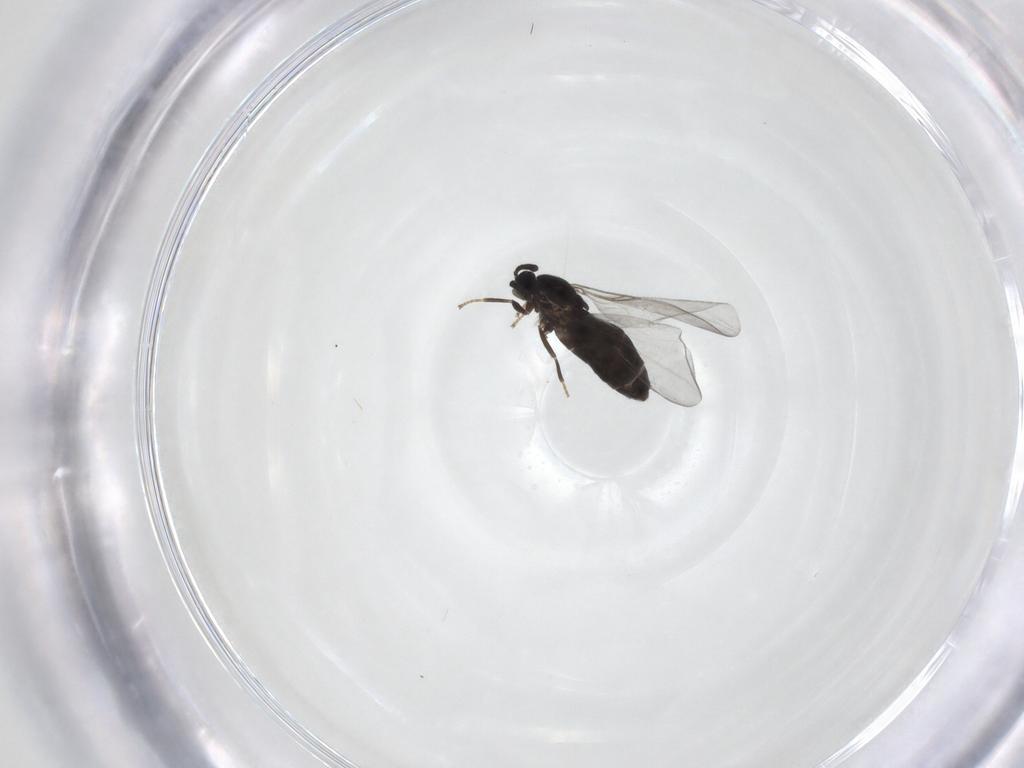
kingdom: Animalia
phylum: Arthropoda
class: Insecta
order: Diptera
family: Scatopsidae
